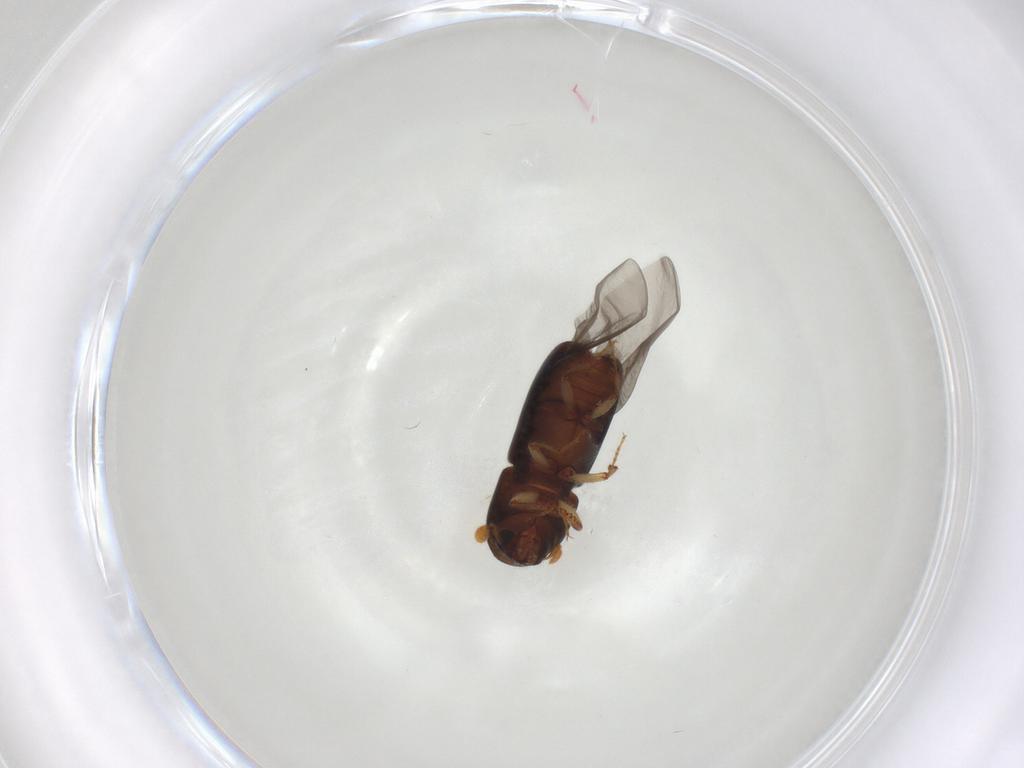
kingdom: Animalia
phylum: Arthropoda
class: Insecta
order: Coleoptera
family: Curculionidae
